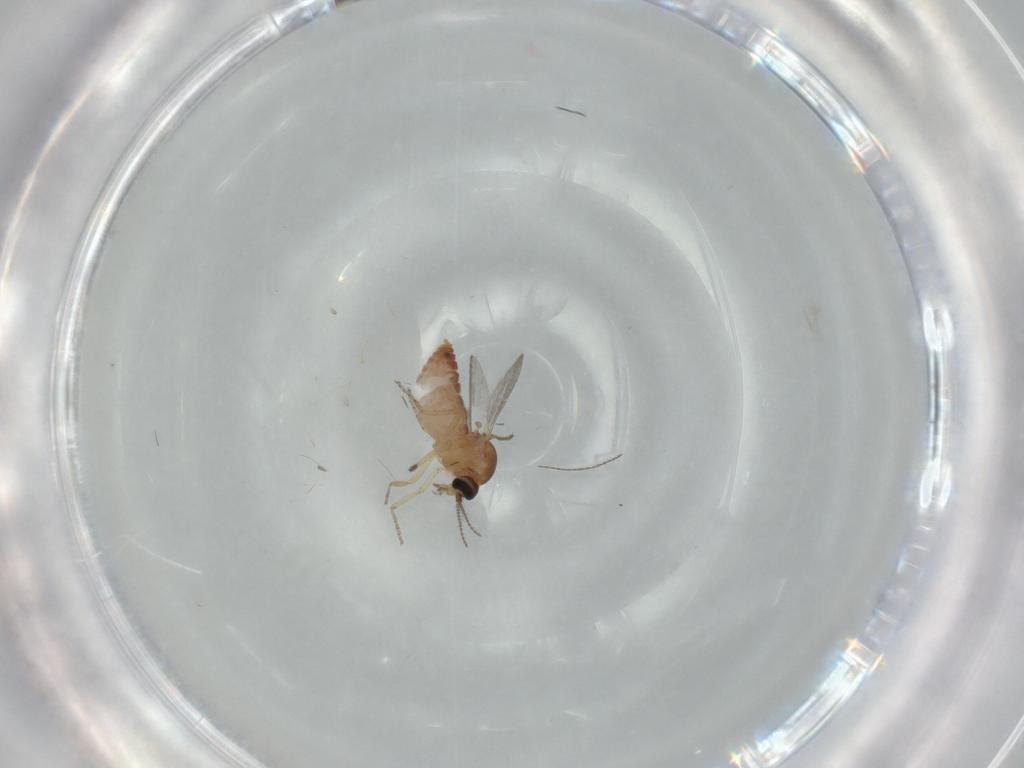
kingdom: Animalia
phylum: Arthropoda
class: Insecta
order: Diptera
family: Ceratopogonidae
